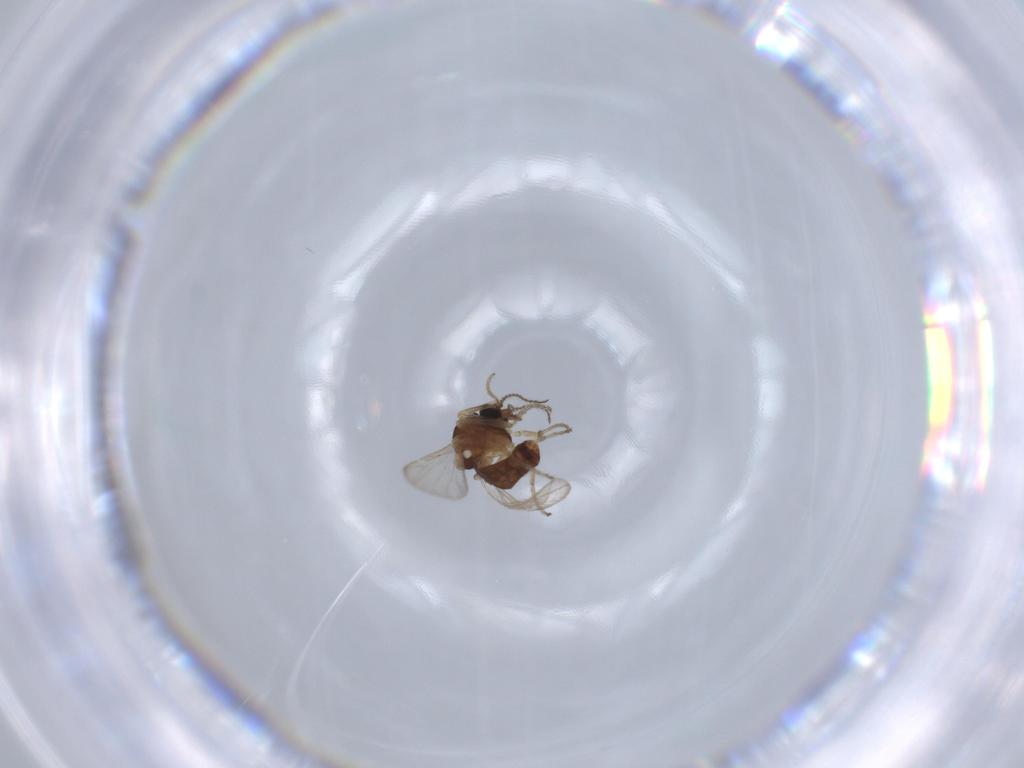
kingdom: Animalia
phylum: Arthropoda
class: Insecta
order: Diptera
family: Ceratopogonidae
